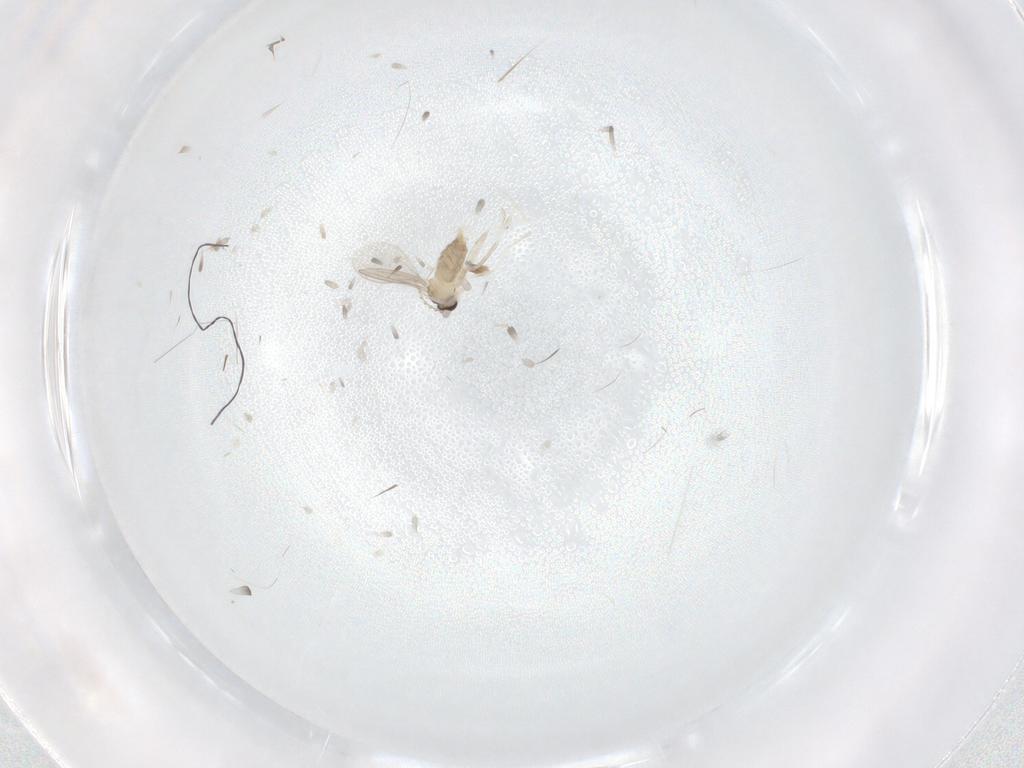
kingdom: Animalia
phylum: Arthropoda
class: Insecta
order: Diptera
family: Cecidomyiidae
